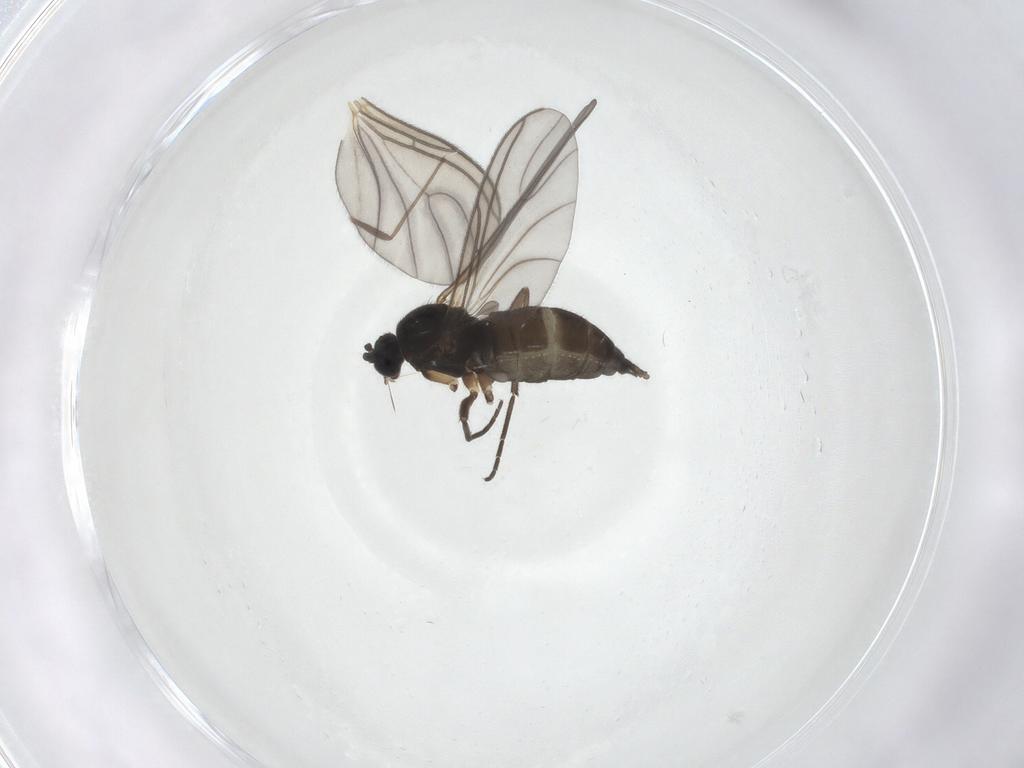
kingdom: Animalia
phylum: Arthropoda
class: Insecta
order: Diptera
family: Sciaridae
